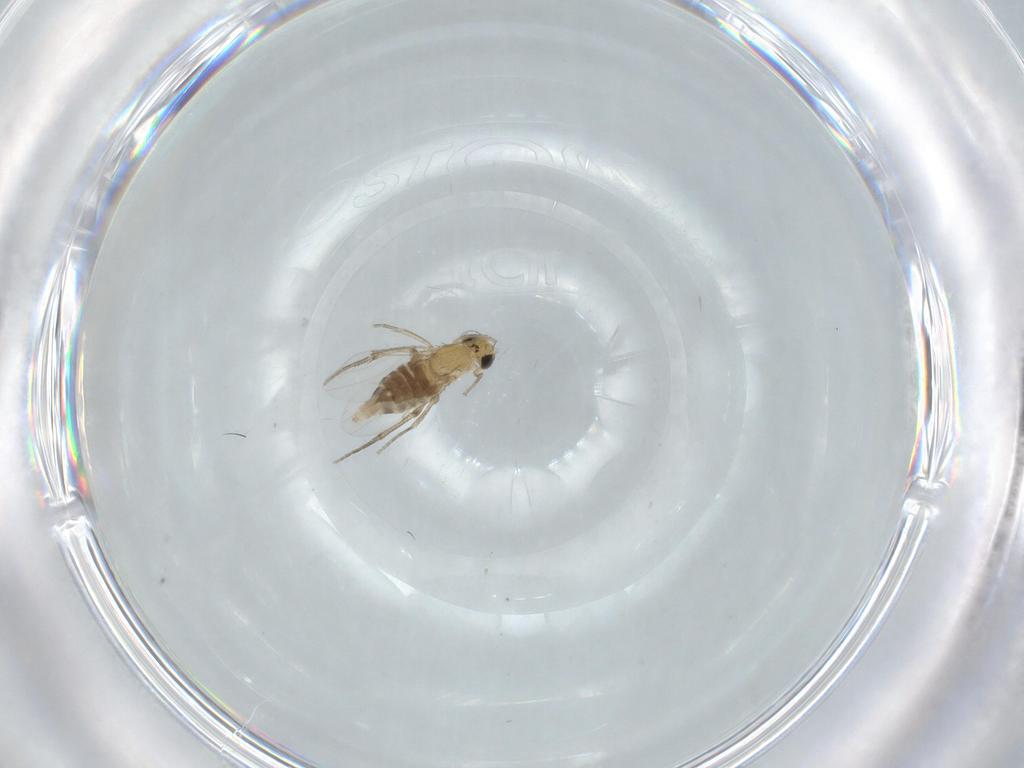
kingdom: Animalia
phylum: Arthropoda
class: Insecta
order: Diptera
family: Phoridae
